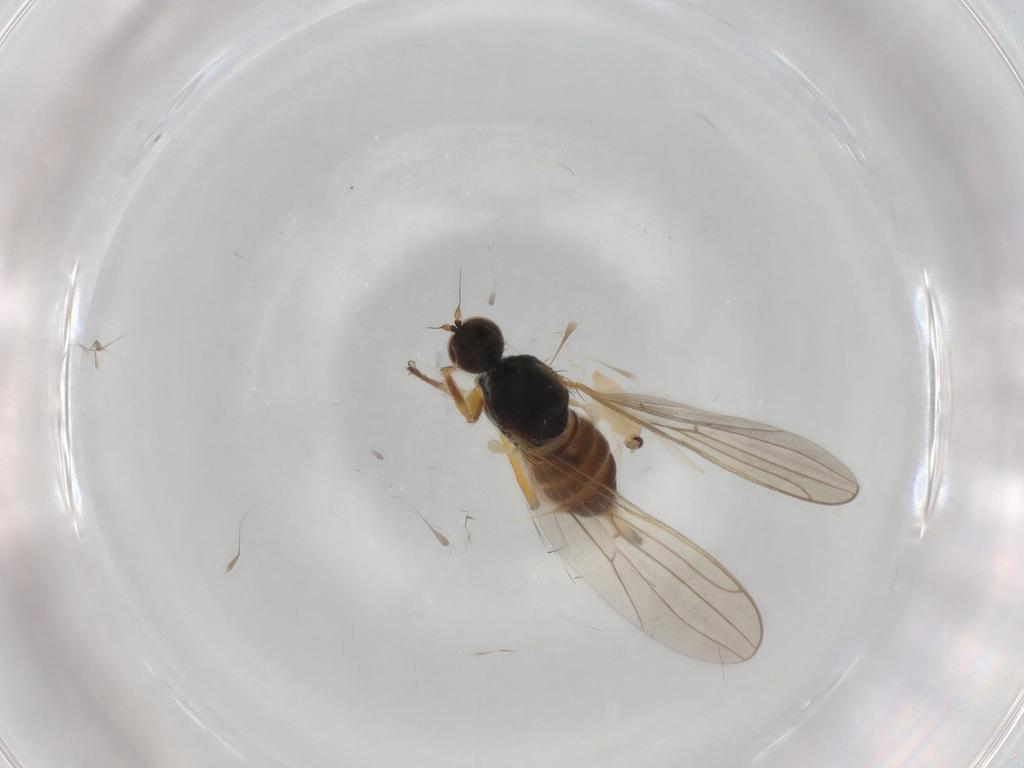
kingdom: Animalia
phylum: Arthropoda
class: Insecta
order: Diptera
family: Hybotidae
